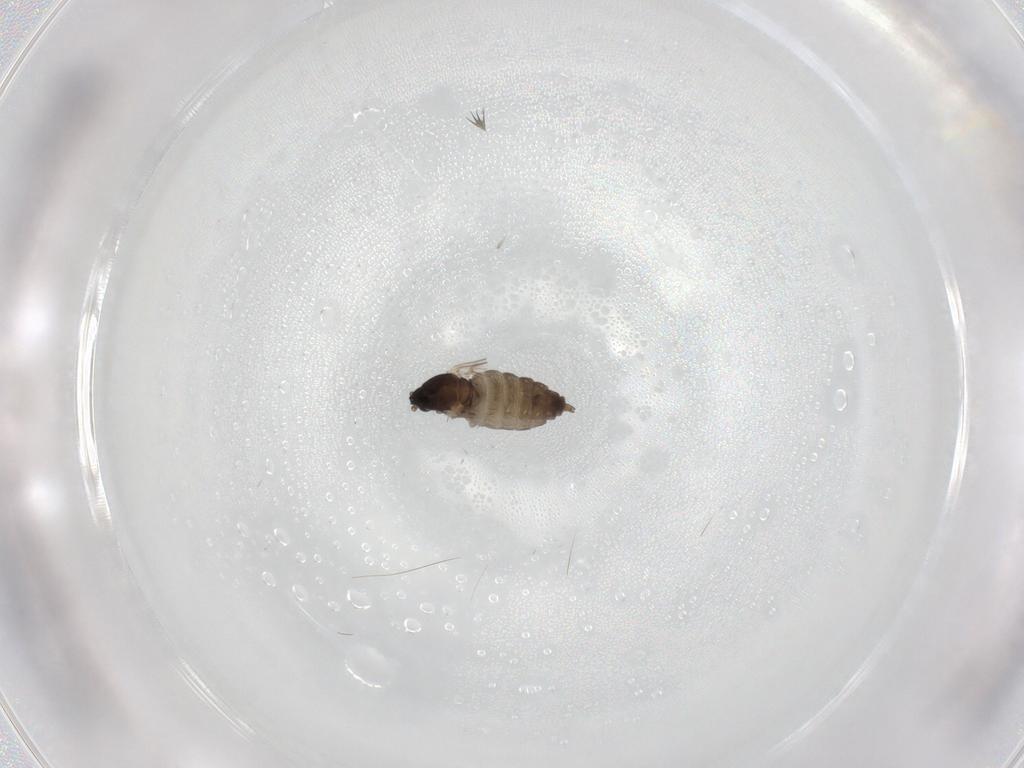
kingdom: Animalia
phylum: Arthropoda
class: Insecta
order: Diptera
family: Cecidomyiidae
